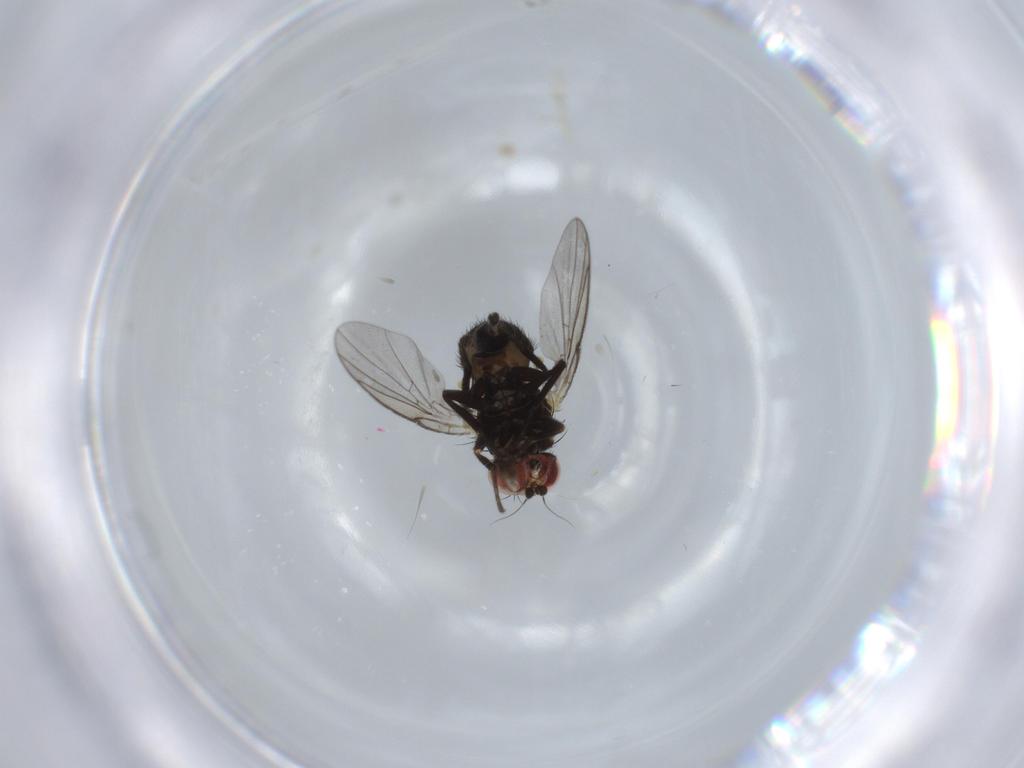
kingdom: Animalia
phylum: Arthropoda
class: Insecta
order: Diptera
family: Agromyzidae
